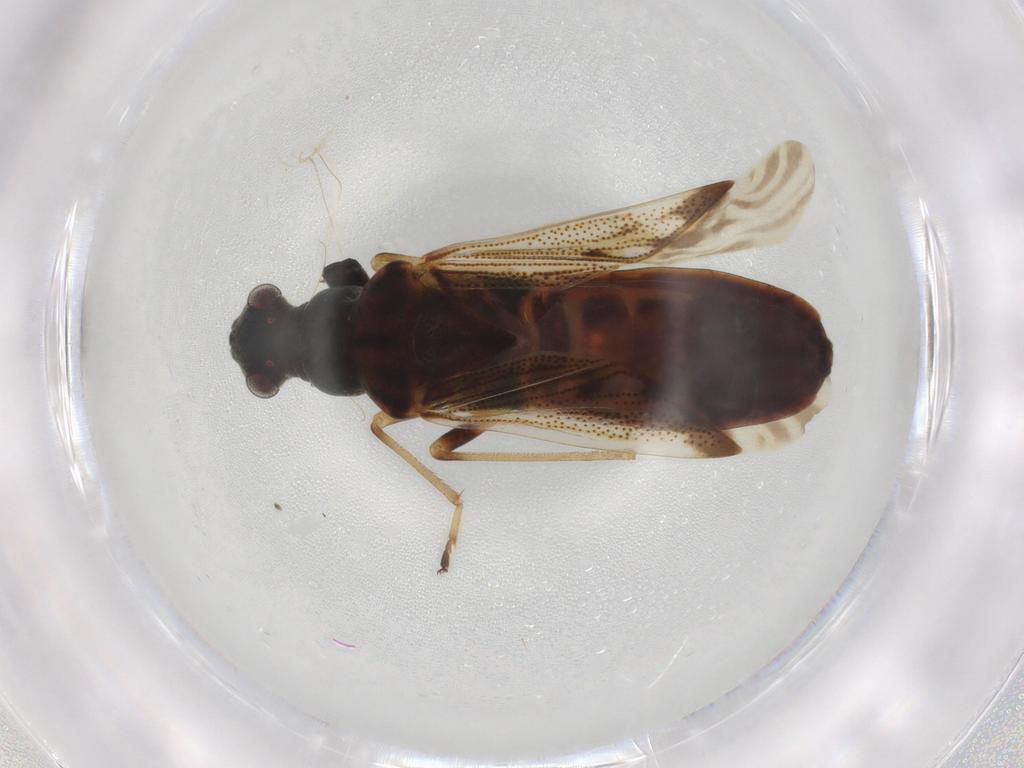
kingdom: Animalia
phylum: Arthropoda
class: Insecta
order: Hemiptera
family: Rhyparochromidae
